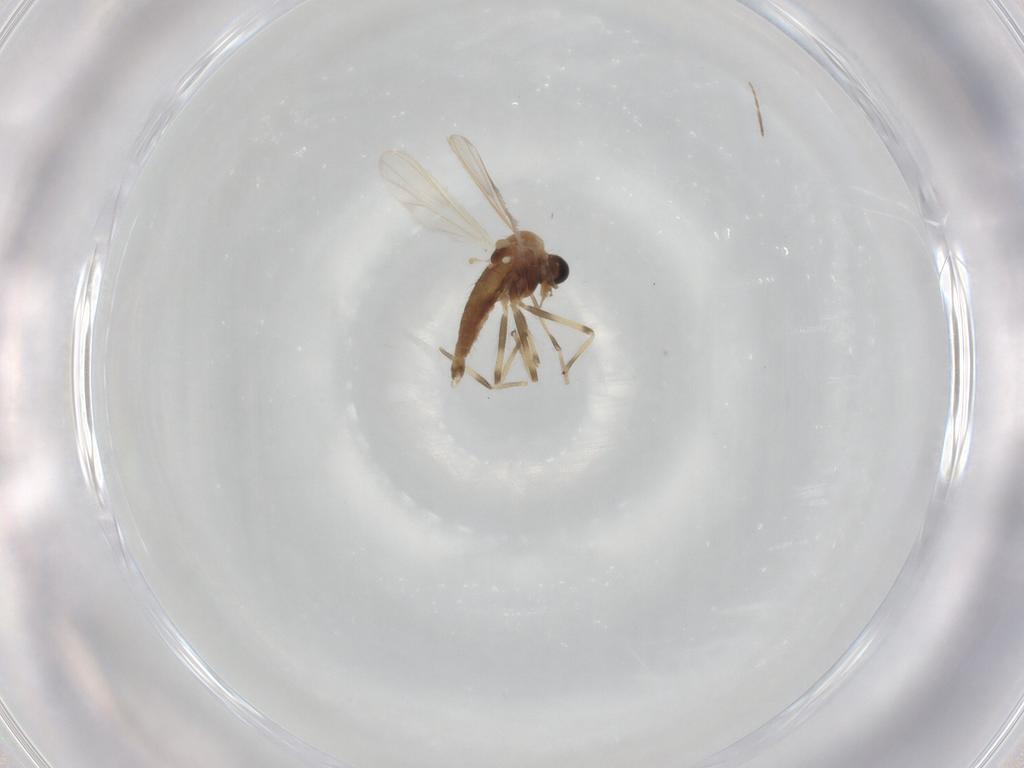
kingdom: Animalia
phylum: Arthropoda
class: Insecta
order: Diptera
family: Chironomidae
